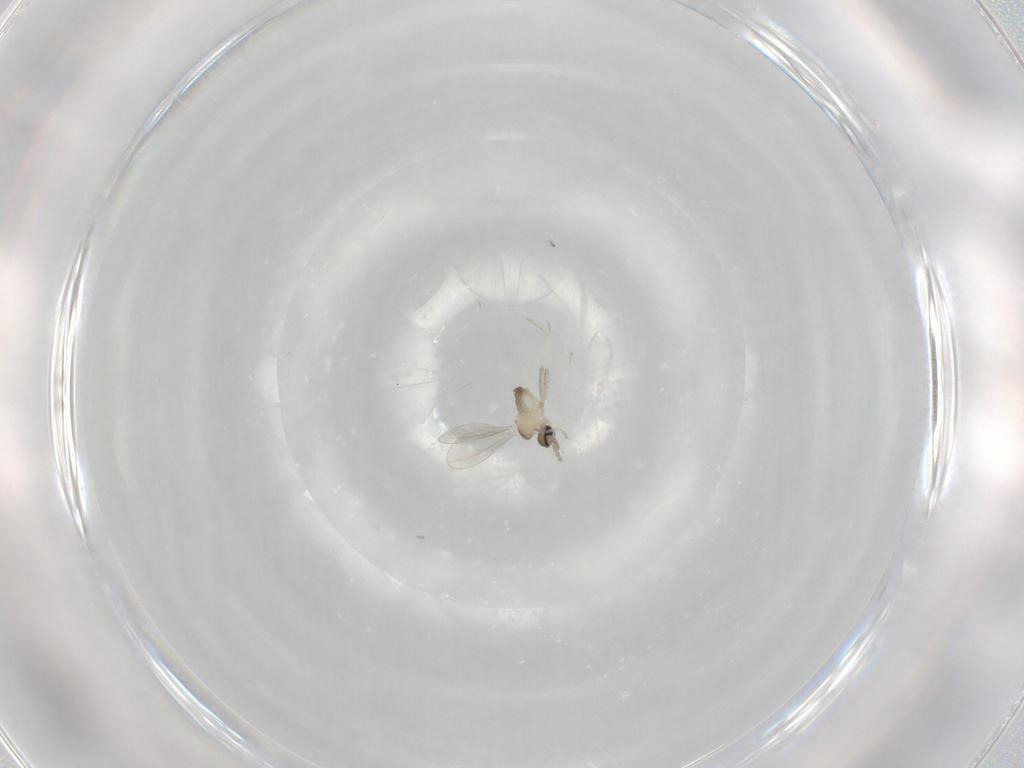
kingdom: Animalia
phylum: Arthropoda
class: Insecta
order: Diptera
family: Cecidomyiidae
